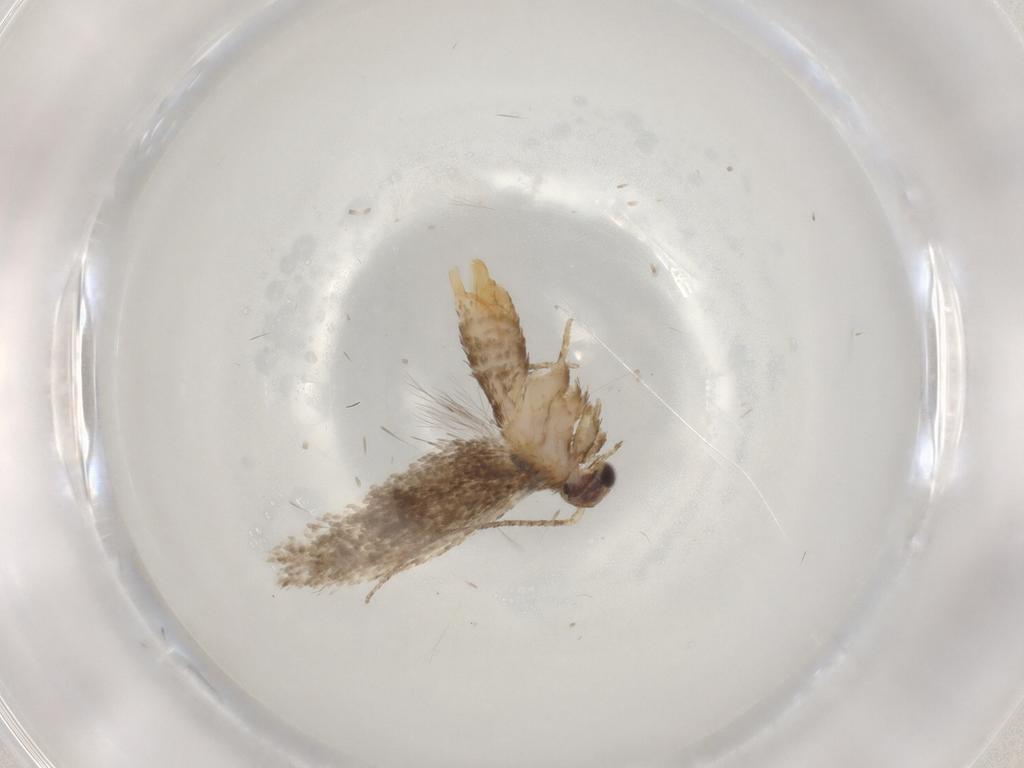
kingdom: Animalia
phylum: Arthropoda
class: Insecta
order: Lepidoptera
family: Tineidae
